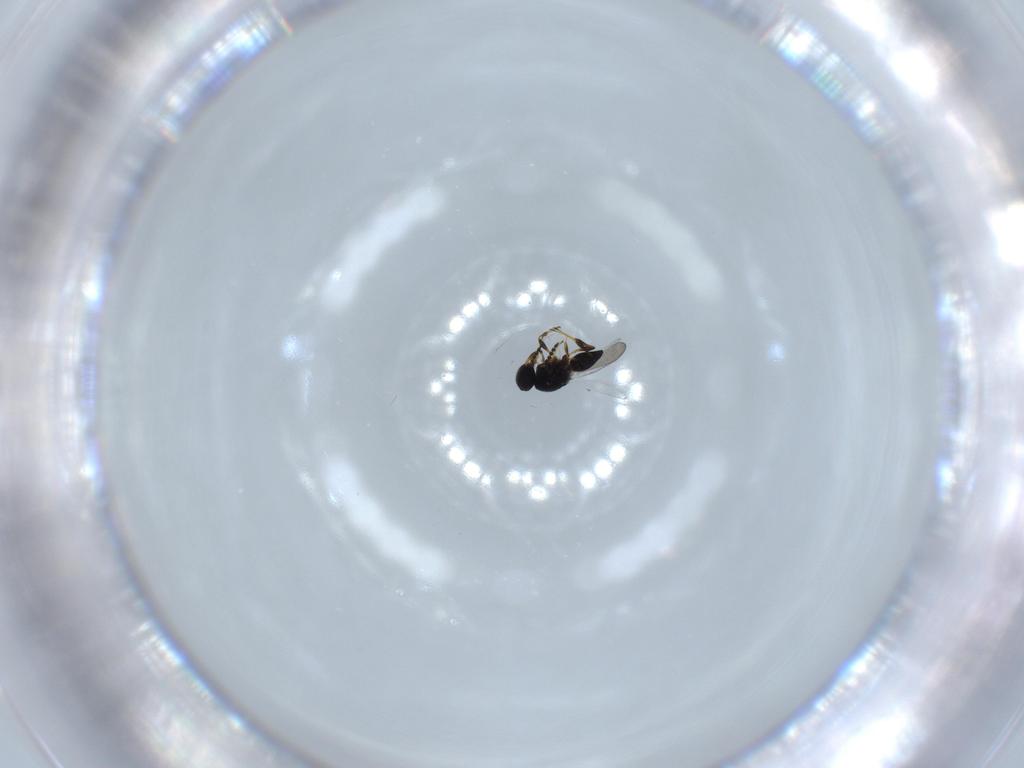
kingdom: Animalia
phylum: Arthropoda
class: Insecta
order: Hymenoptera
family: Platygastridae
